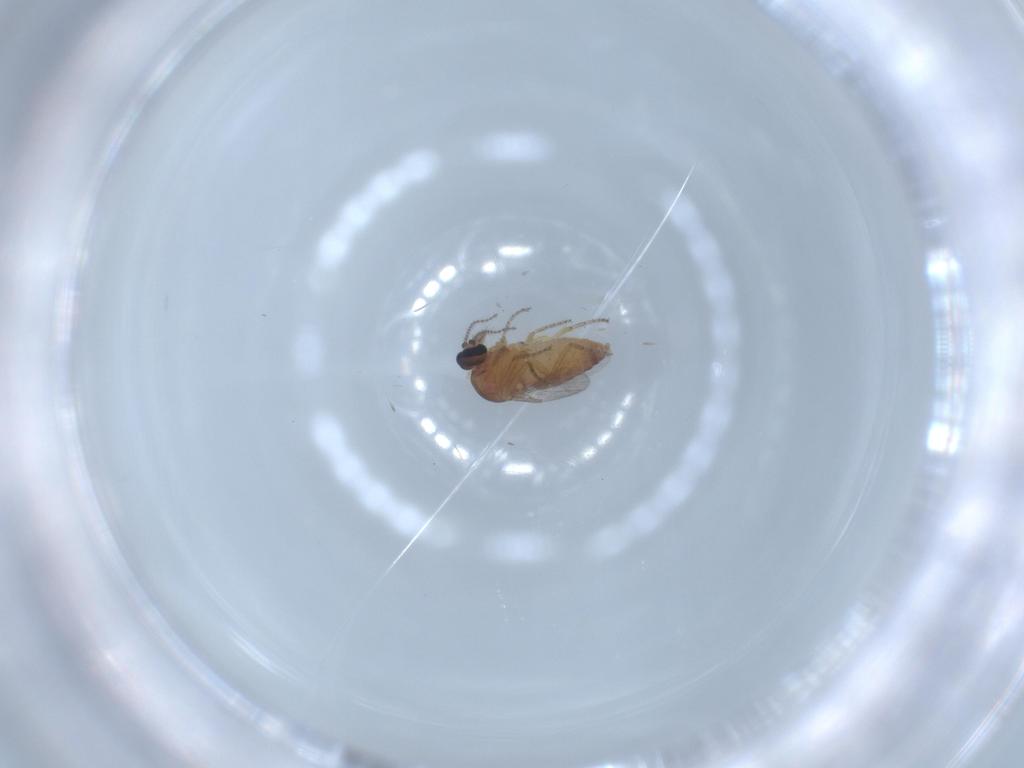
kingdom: Animalia
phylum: Arthropoda
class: Insecta
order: Diptera
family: Ceratopogonidae
